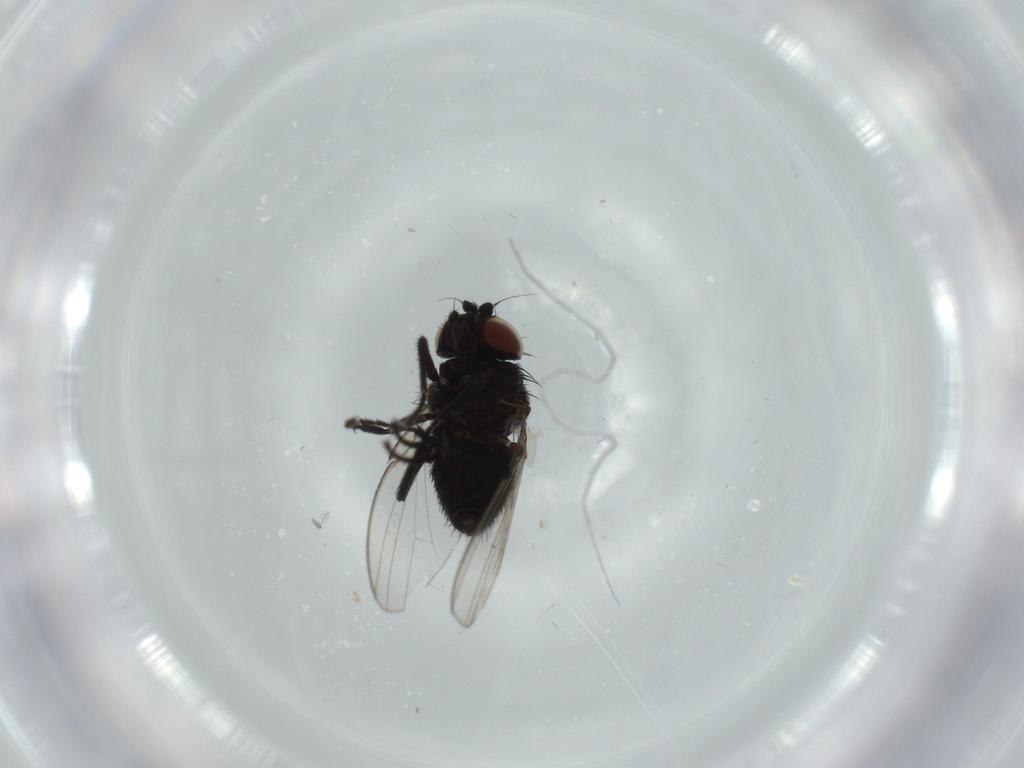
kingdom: Animalia
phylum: Arthropoda
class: Insecta
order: Diptera
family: Milichiidae
